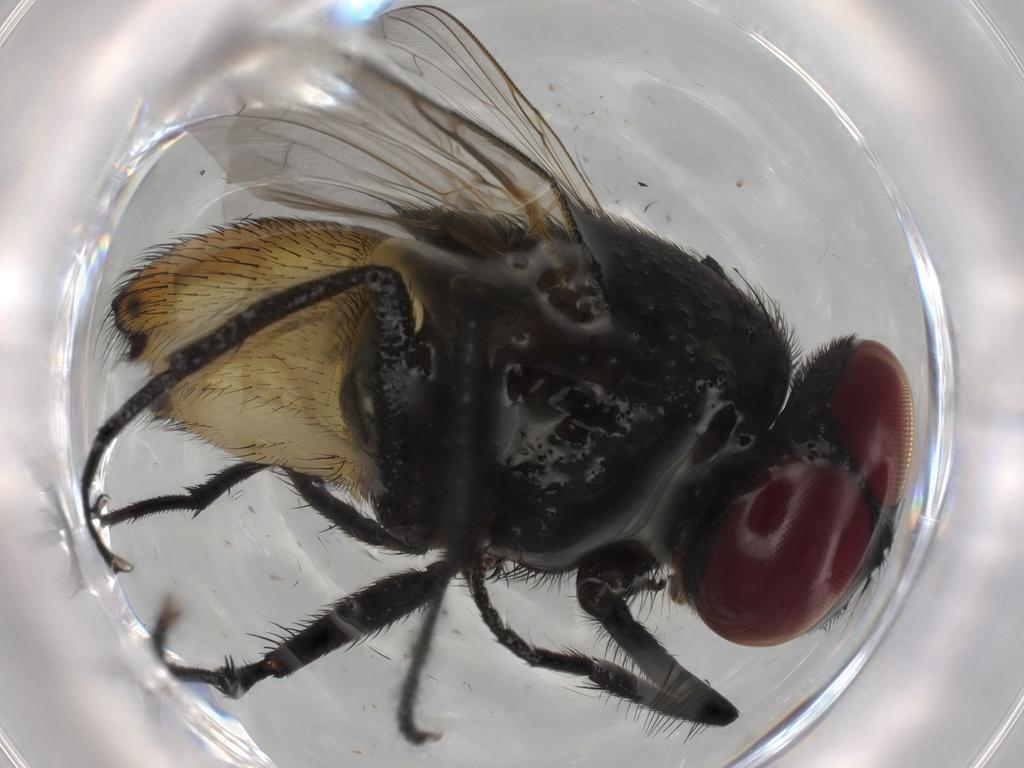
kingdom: Animalia
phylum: Arthropoda
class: Insecta
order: Diptera
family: Muscidae
